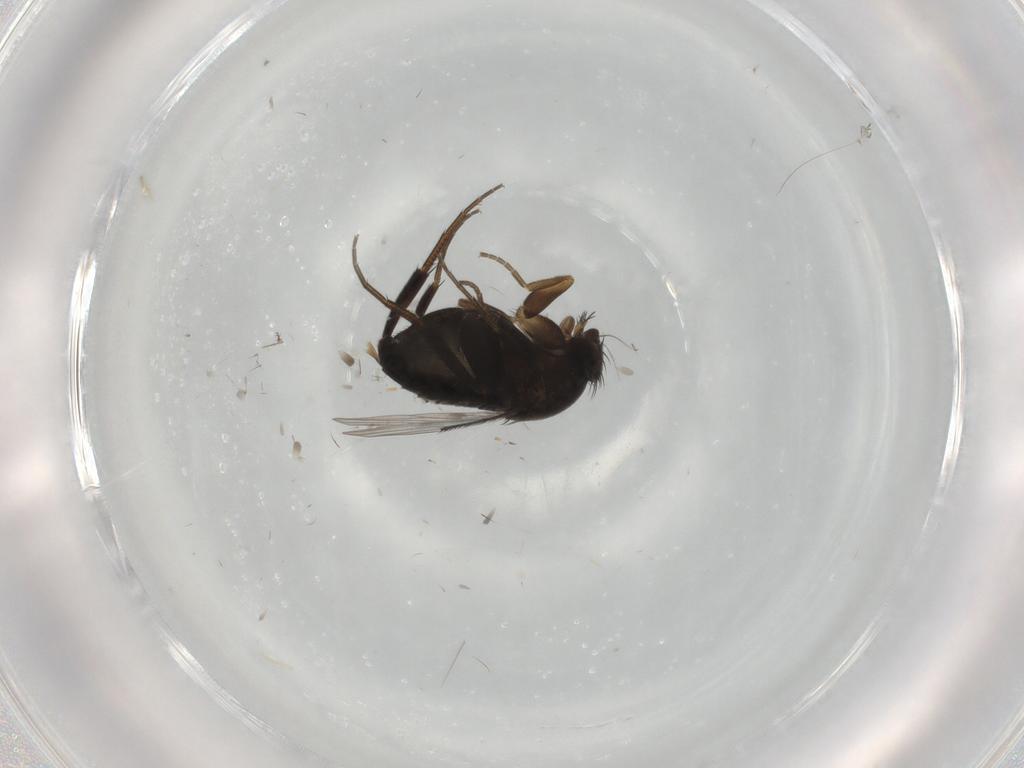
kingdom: Animalia
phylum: Arthropoda
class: Insecta
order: Diptera
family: Phoridae
